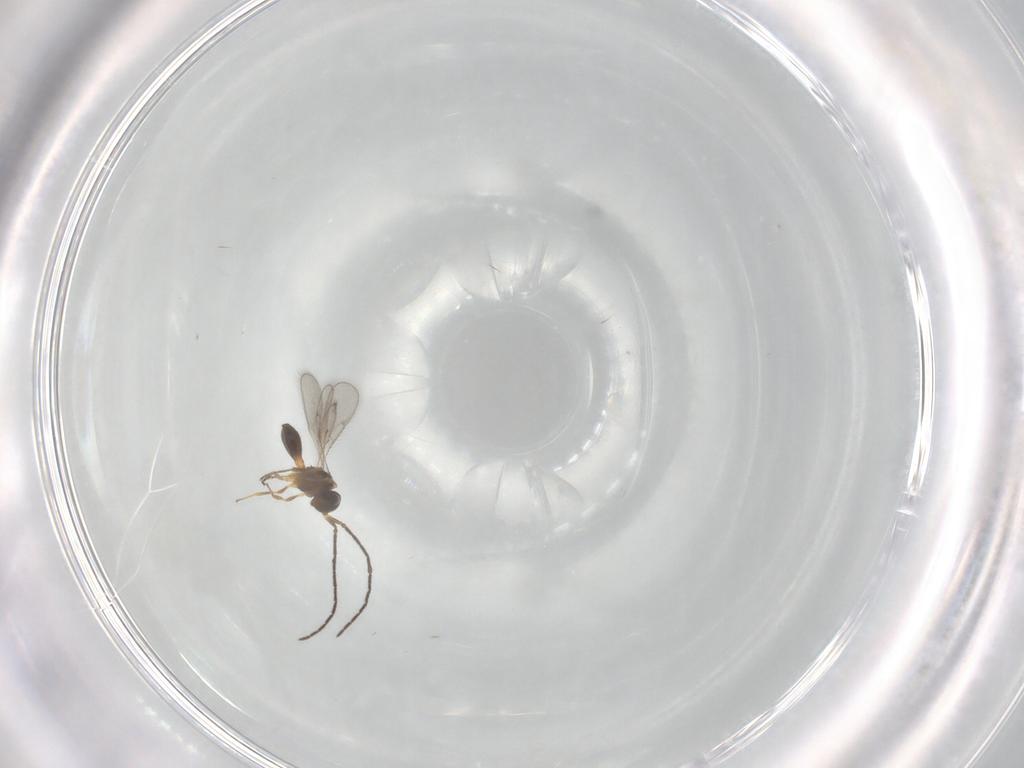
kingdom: Animalia
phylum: Arthropoda
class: Insecta
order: Hymenoptera
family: Scelionidae
